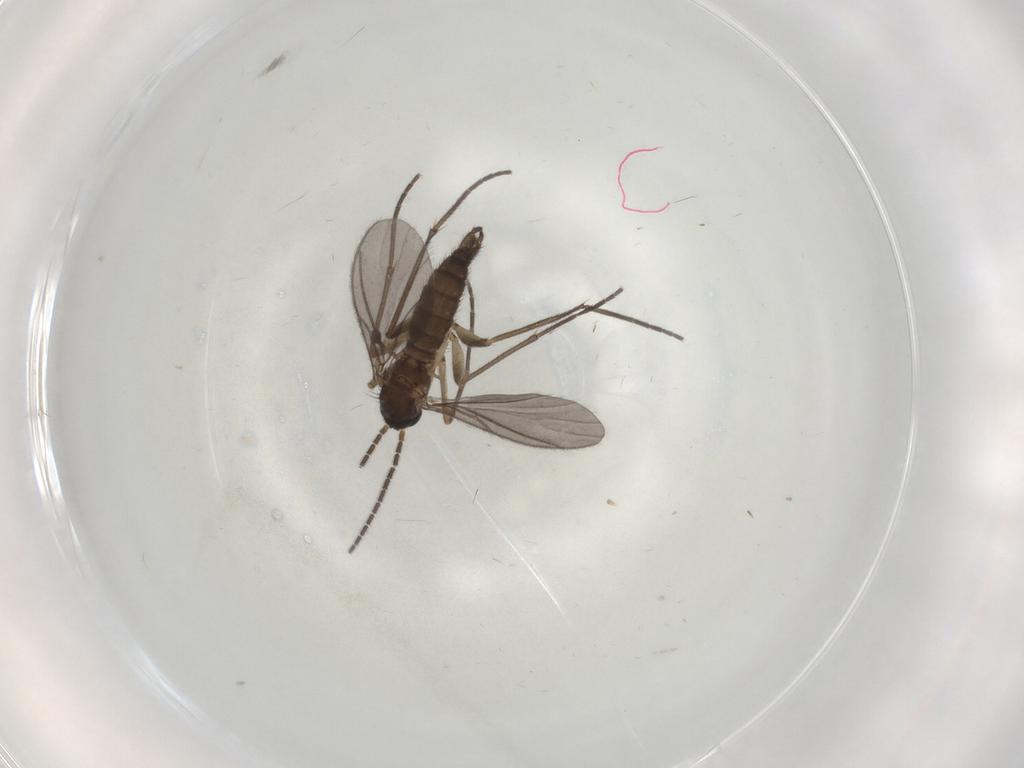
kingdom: Animalia
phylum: Arthropoda
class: Insecta
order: Diptera
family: Sciaridae
